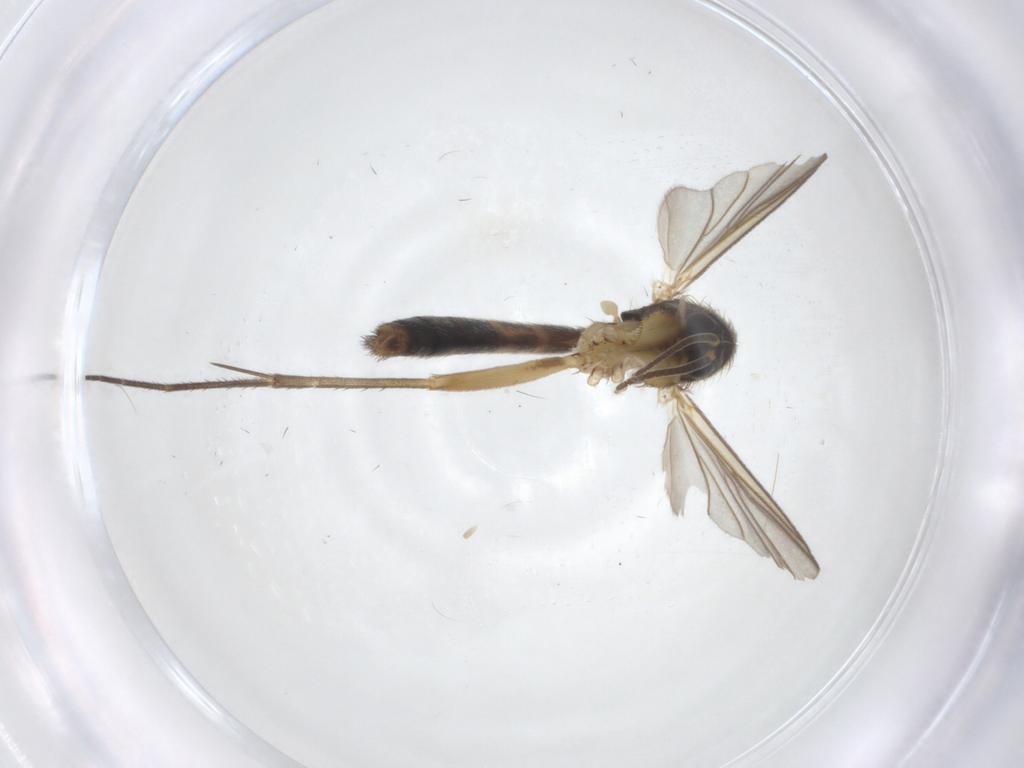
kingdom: Animalia
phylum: Arthropoda
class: Insecta
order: Diptera
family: Mycetophilidae
